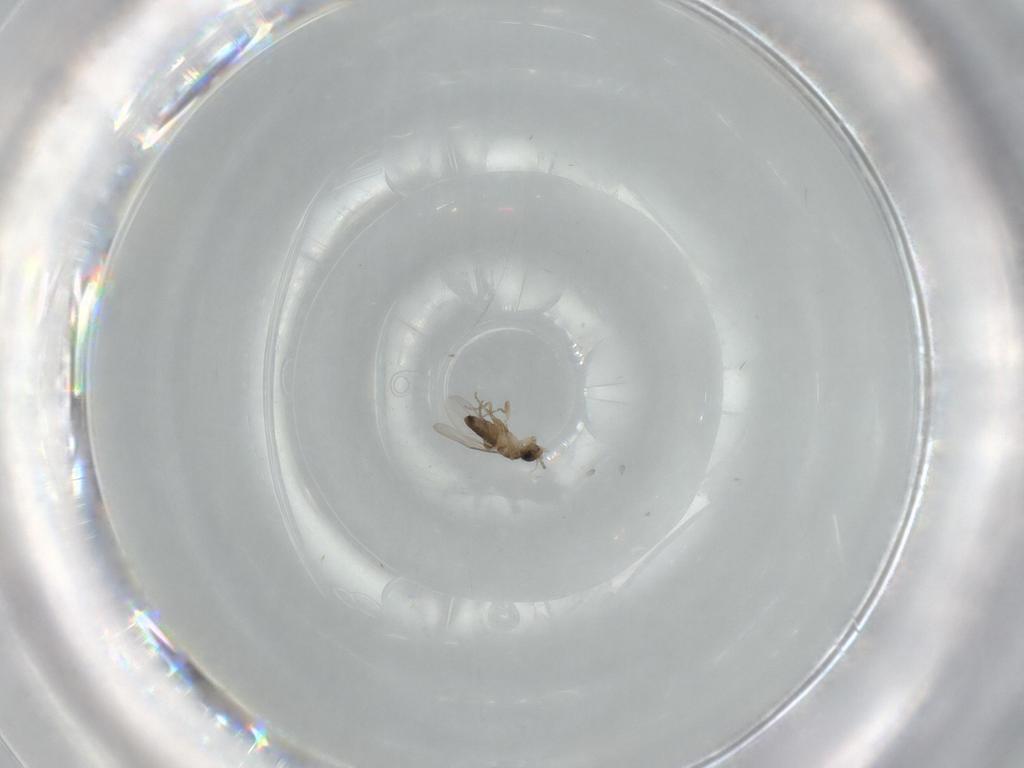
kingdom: Animalia
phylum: Arthropoda
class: Insecta
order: Diptera
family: Phoridae
